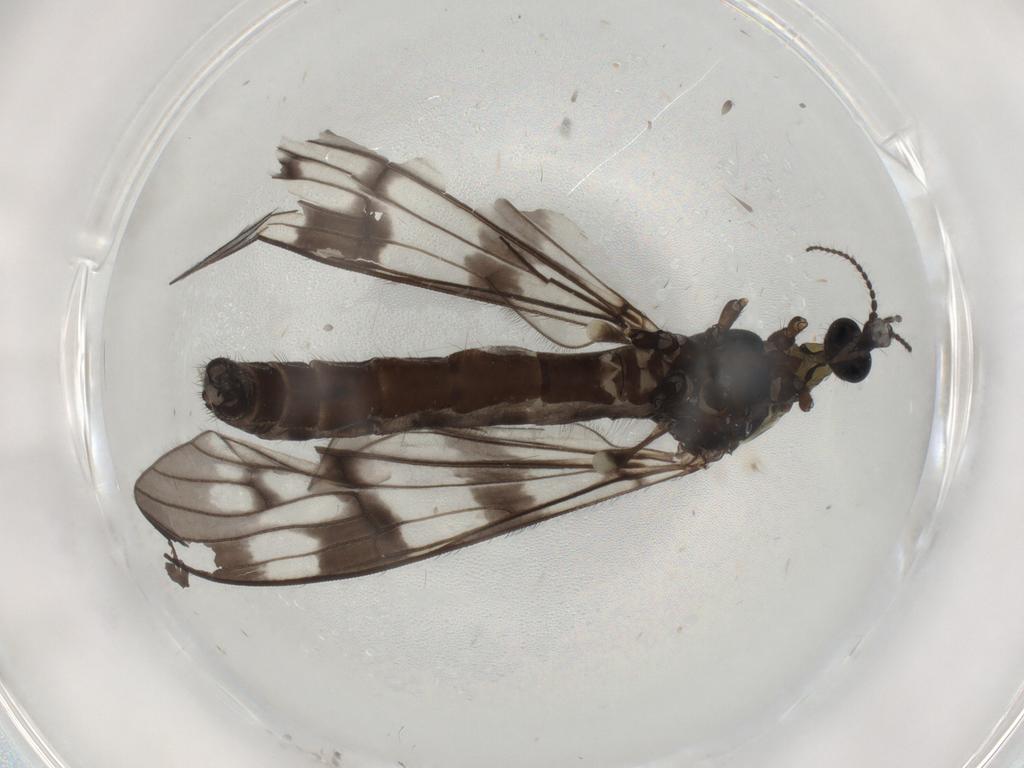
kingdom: Animalia
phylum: Arthropoda
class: Insecta
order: Diptera
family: Limoniidae
